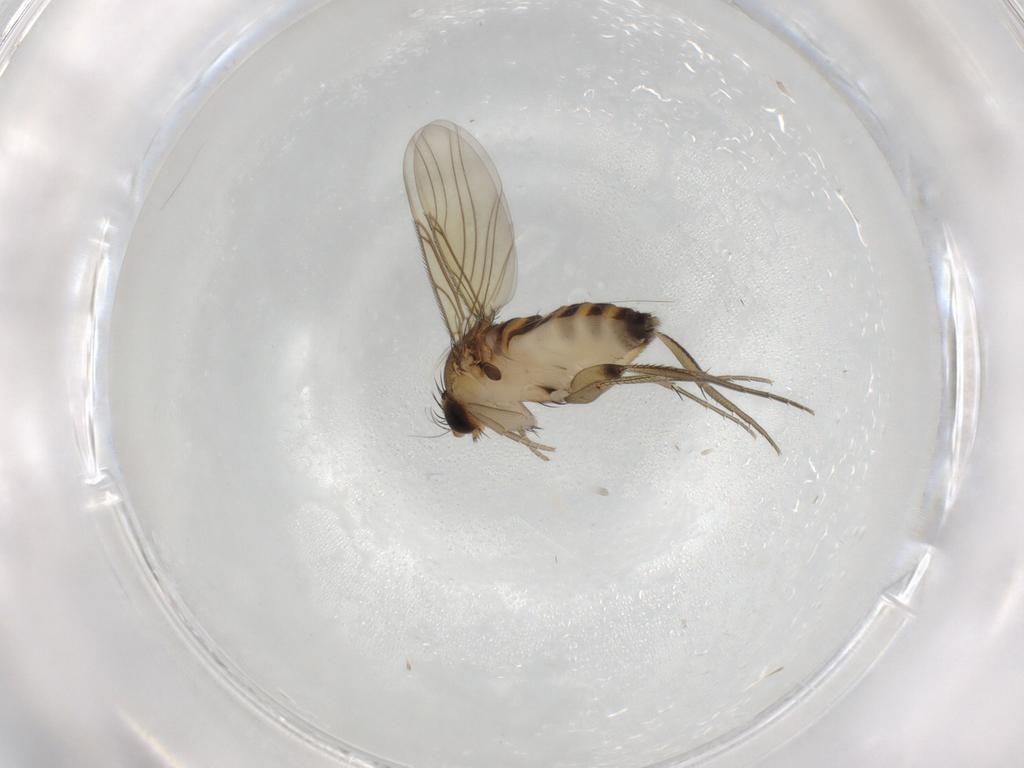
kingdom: Animalia
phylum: Arthropoda
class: Insecta
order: Diptera
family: Phoridae
